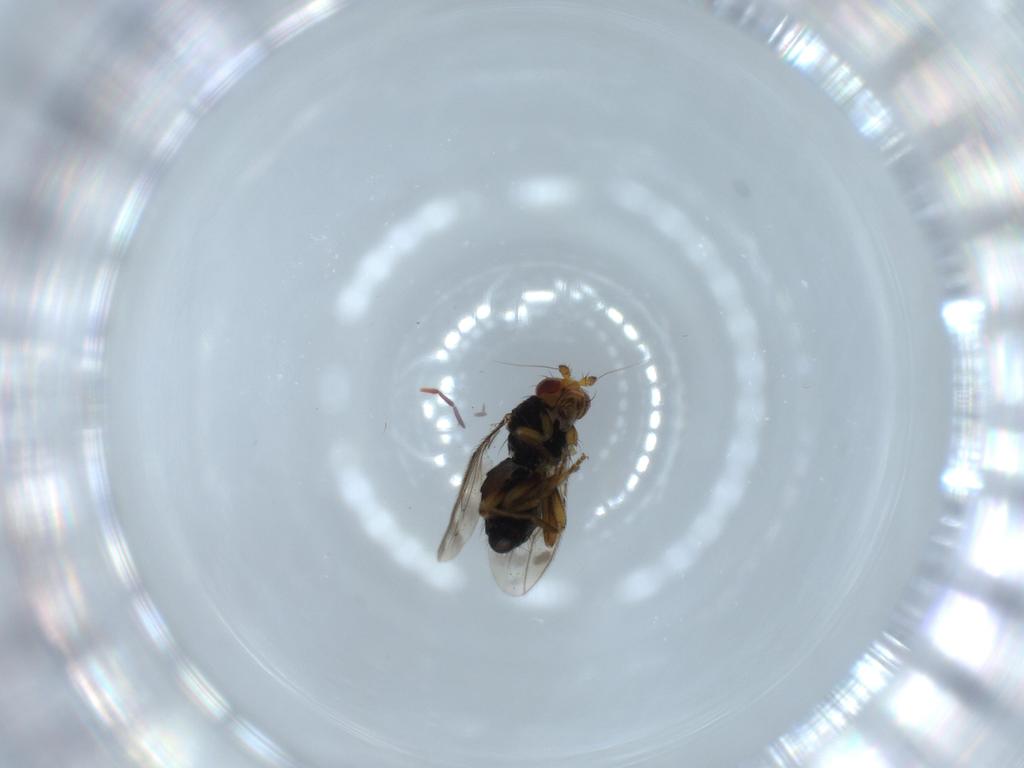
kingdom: Animalia
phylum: Arthropoda
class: Insecta
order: Diptera
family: Ceratopogonidae
